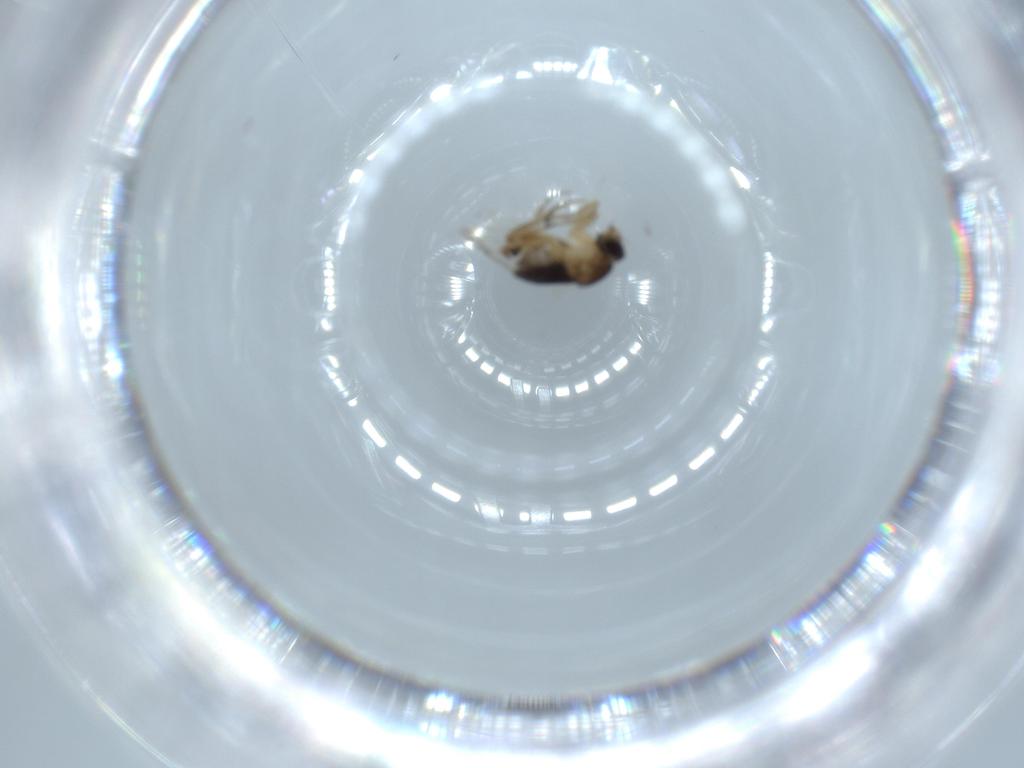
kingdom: Animalia
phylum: Arthropoda
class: Insecta
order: Diptera
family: Phoridae
